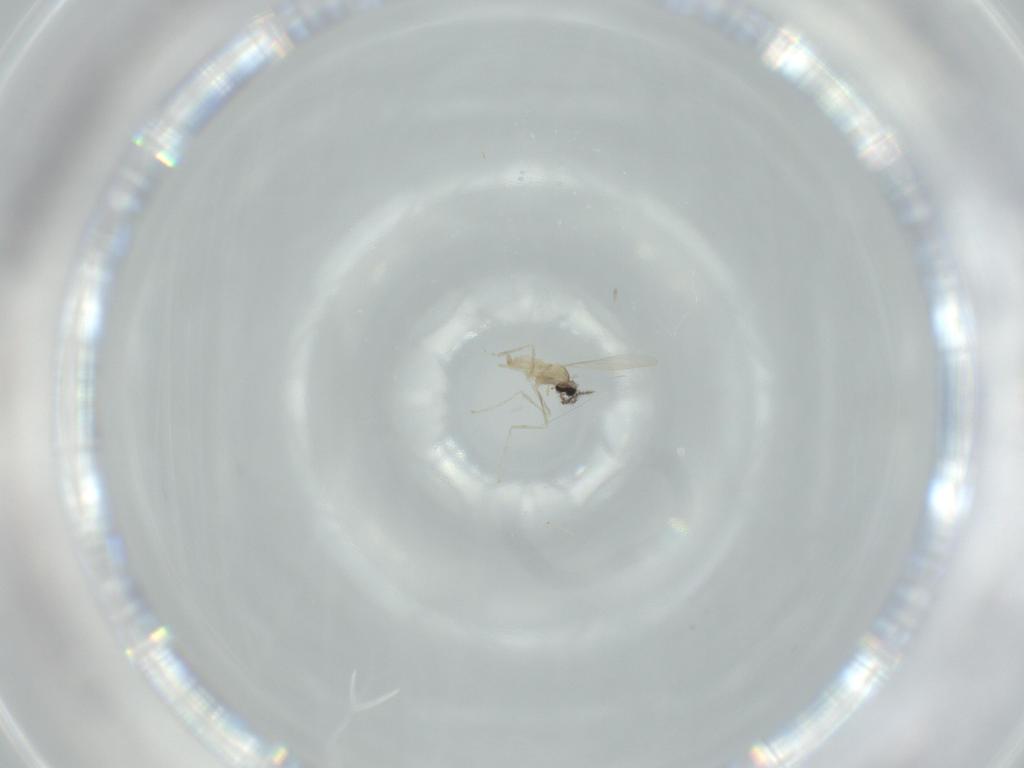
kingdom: Animalia
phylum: Arthropoda
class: Insecta
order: Diptera
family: Cecidomyiidae
